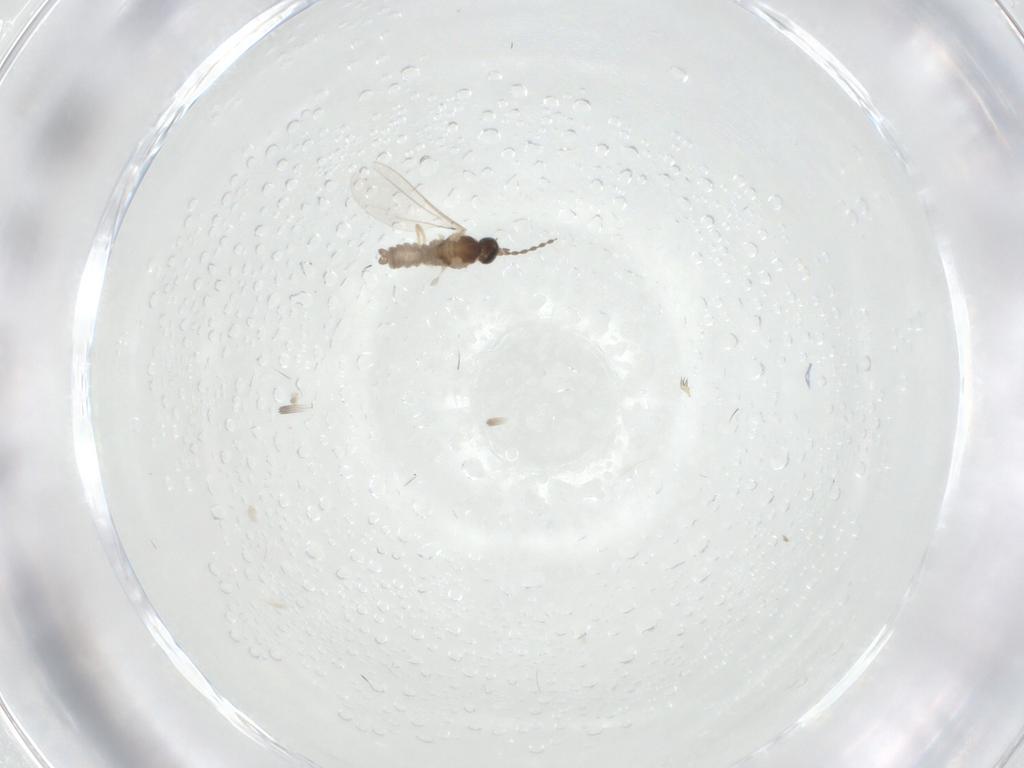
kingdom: Animalia
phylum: Arthropoda
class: Insecta
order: Diptera
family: Cecidomyiidae
